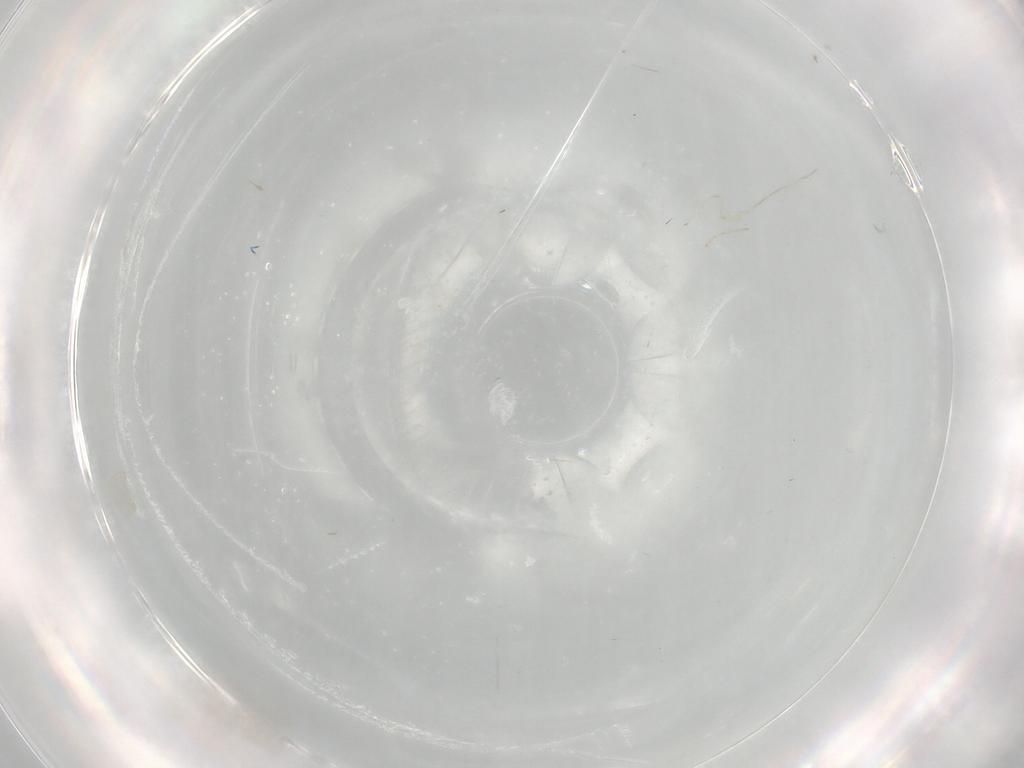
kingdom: Animalia
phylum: Arthropoda
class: Insecta
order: Diptera
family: Cecidomyiidae
